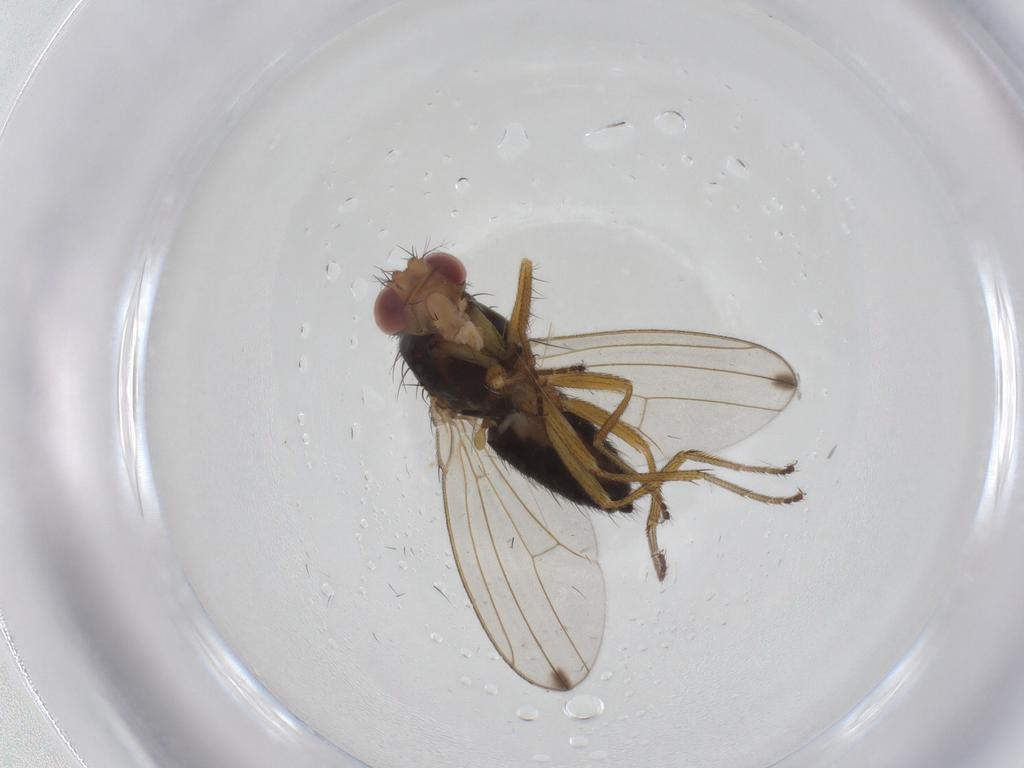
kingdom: Animalia
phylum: Arthropoda
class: Insecta
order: Diptera
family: Drosophilidae
